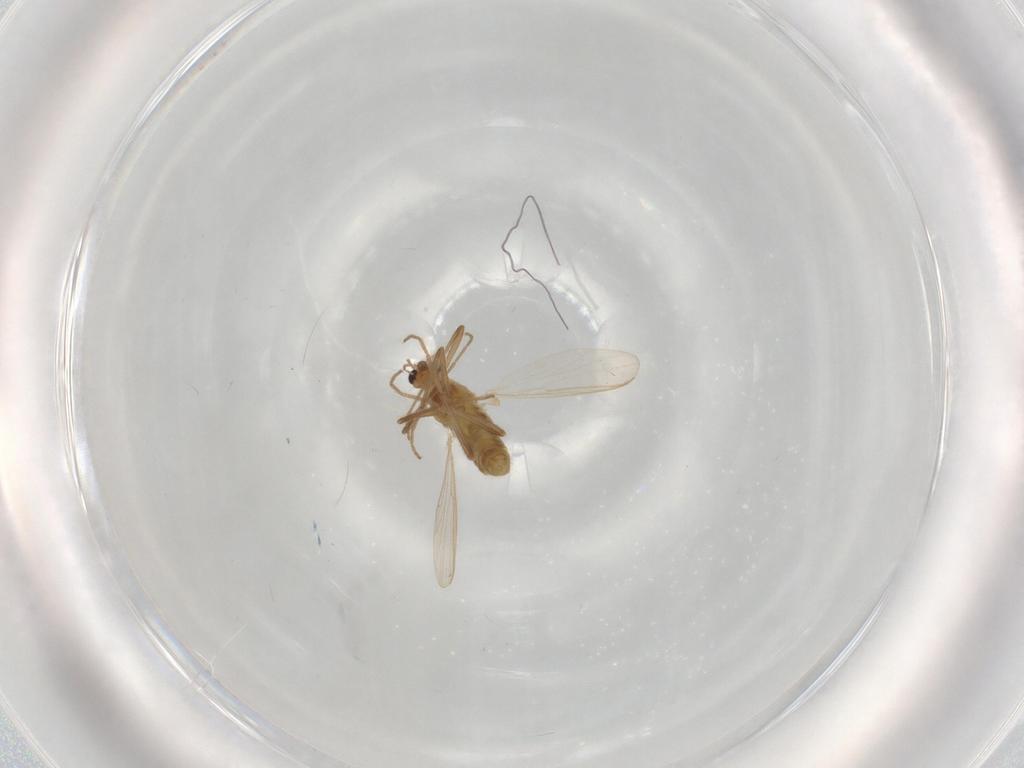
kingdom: Animalia
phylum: Arthropoda
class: Insecta
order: Diptera
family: Chironomidae
